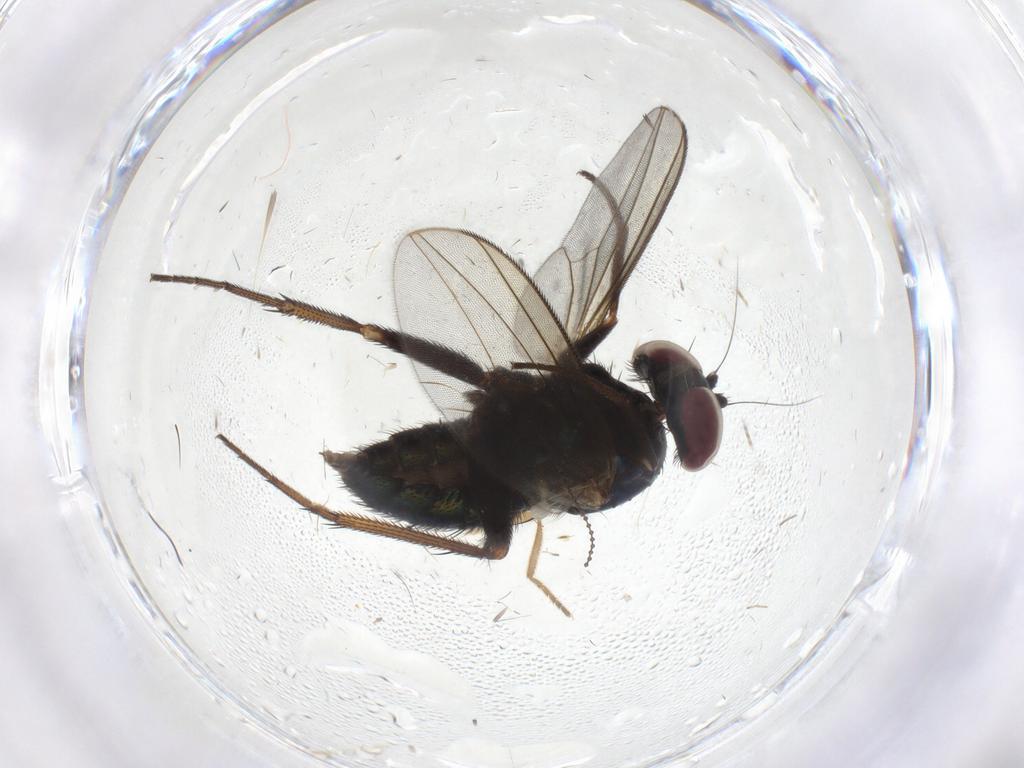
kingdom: Animalia
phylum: Arthropoda
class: Insecta
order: Diptera
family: Dolichopodidae
